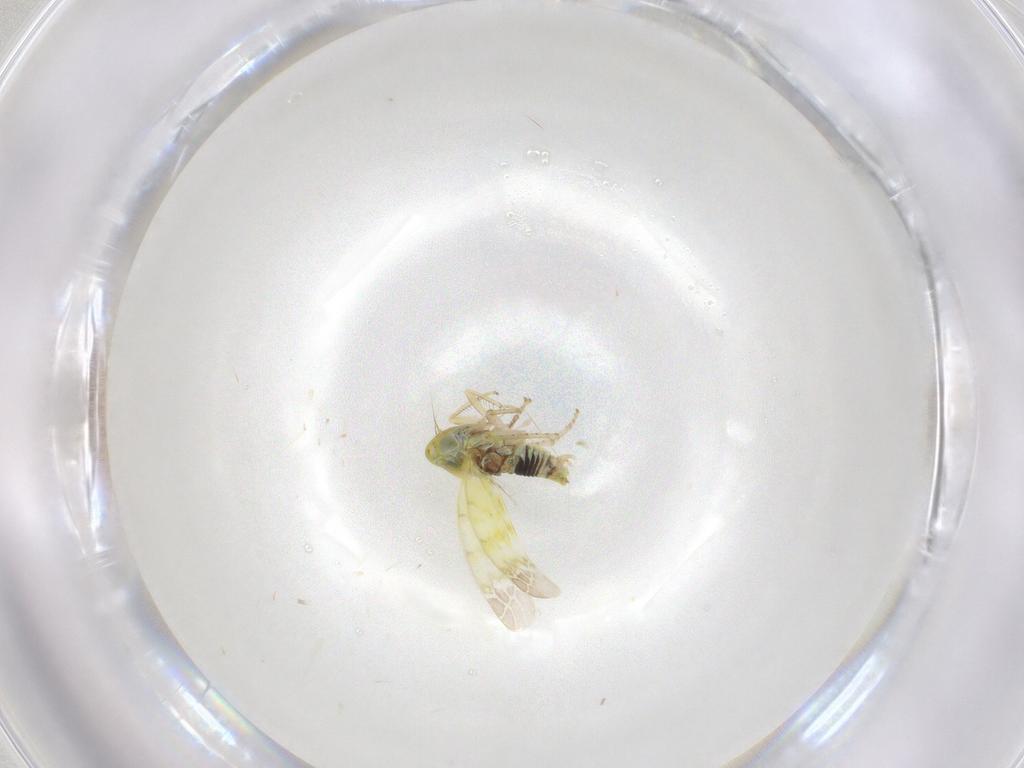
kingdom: Animalia
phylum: Arthropoda
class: Insecta
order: Hemiptera
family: Cicadellidae
